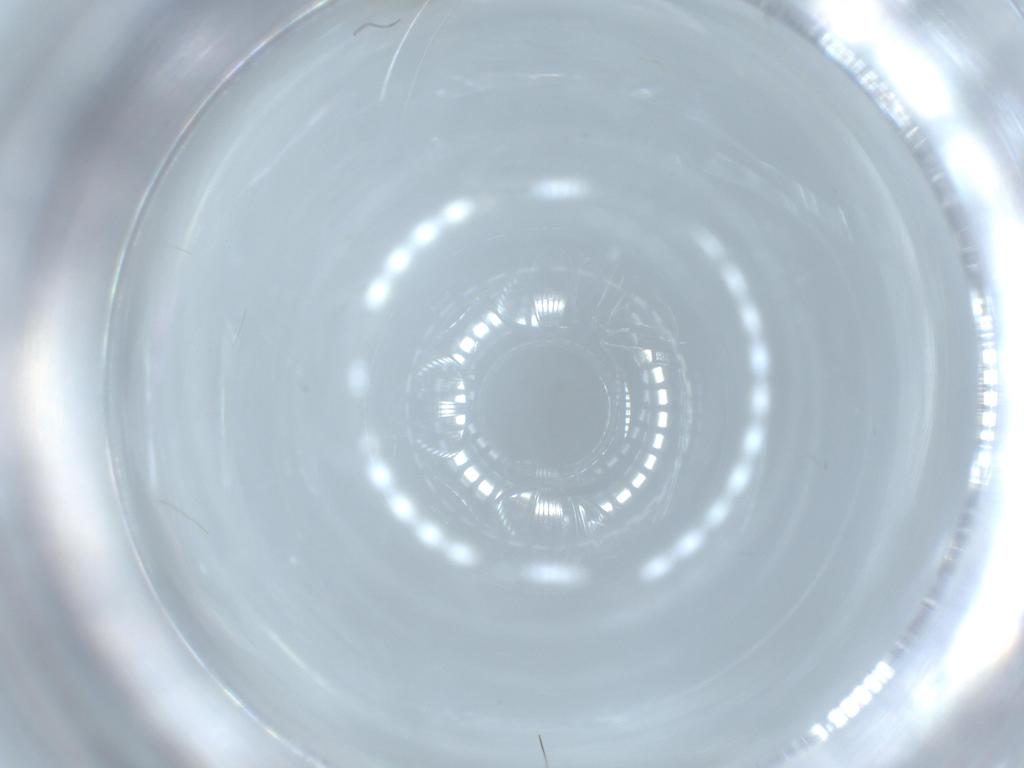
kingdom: Animalia
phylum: Arthropoda
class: Insecta
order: Diptera
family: Cecidomyiidae
